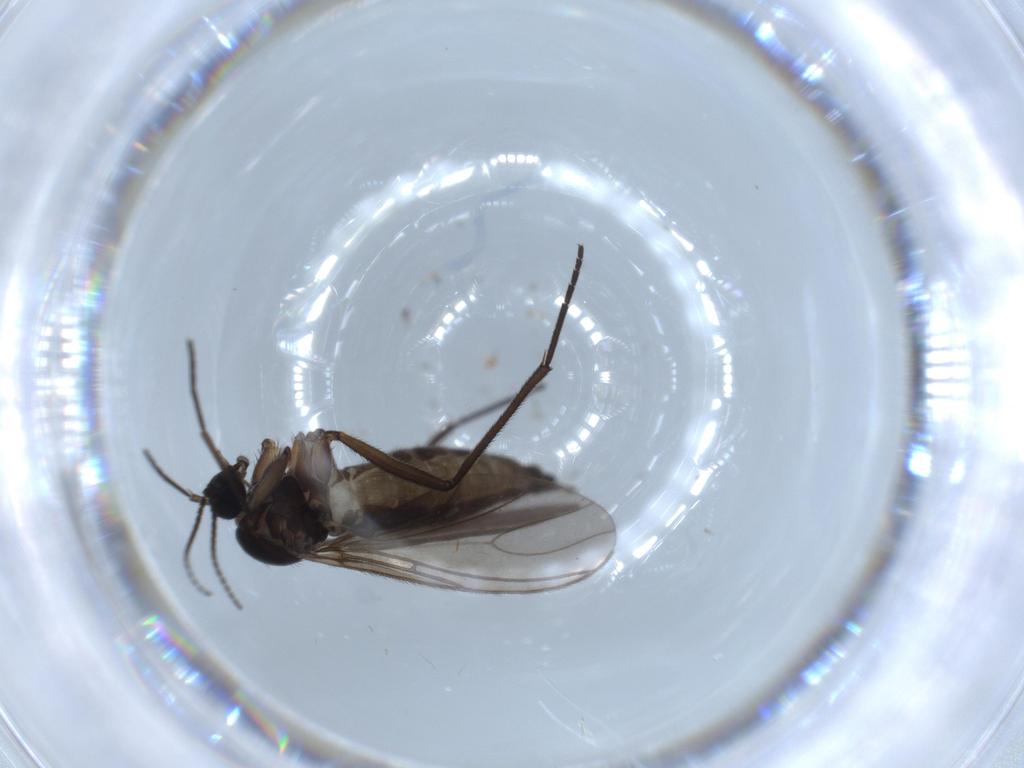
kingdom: Animalia
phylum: Arthropoda
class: Insecta
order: Diptera
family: Sciaridae
